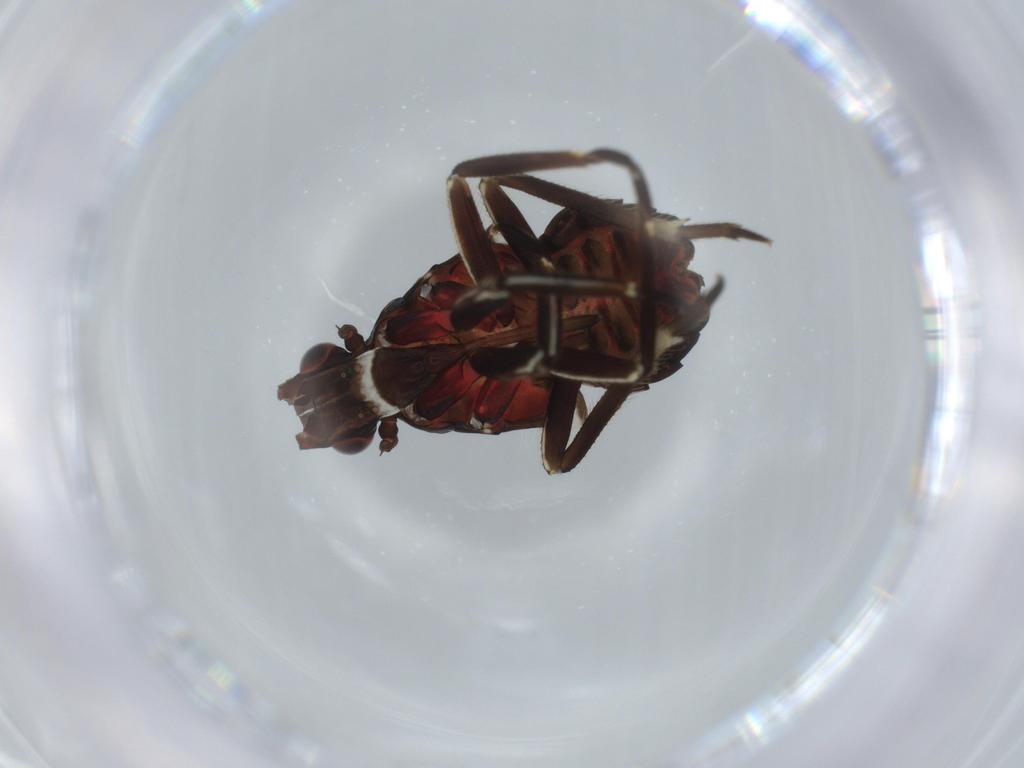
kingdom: Animalia
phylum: Arthropoda
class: Insecta
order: Hemiptera
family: Fulgoridae
